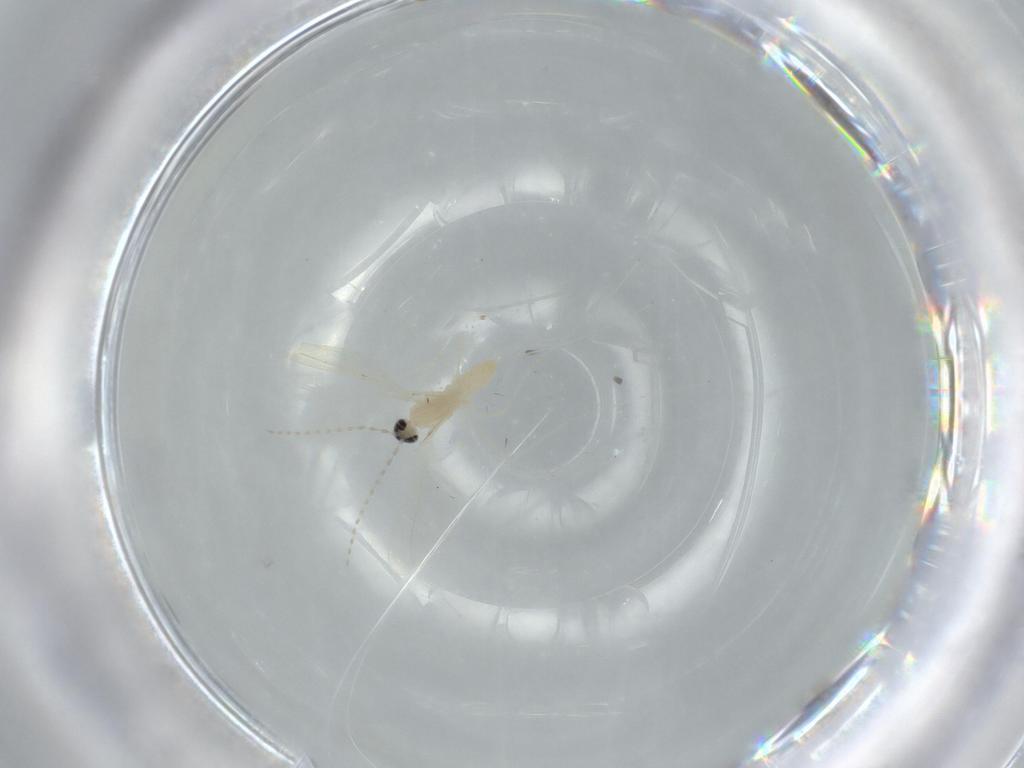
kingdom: Animalia
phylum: Arthropoda
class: Insecta
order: Diptera
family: Cecidomyiidae
